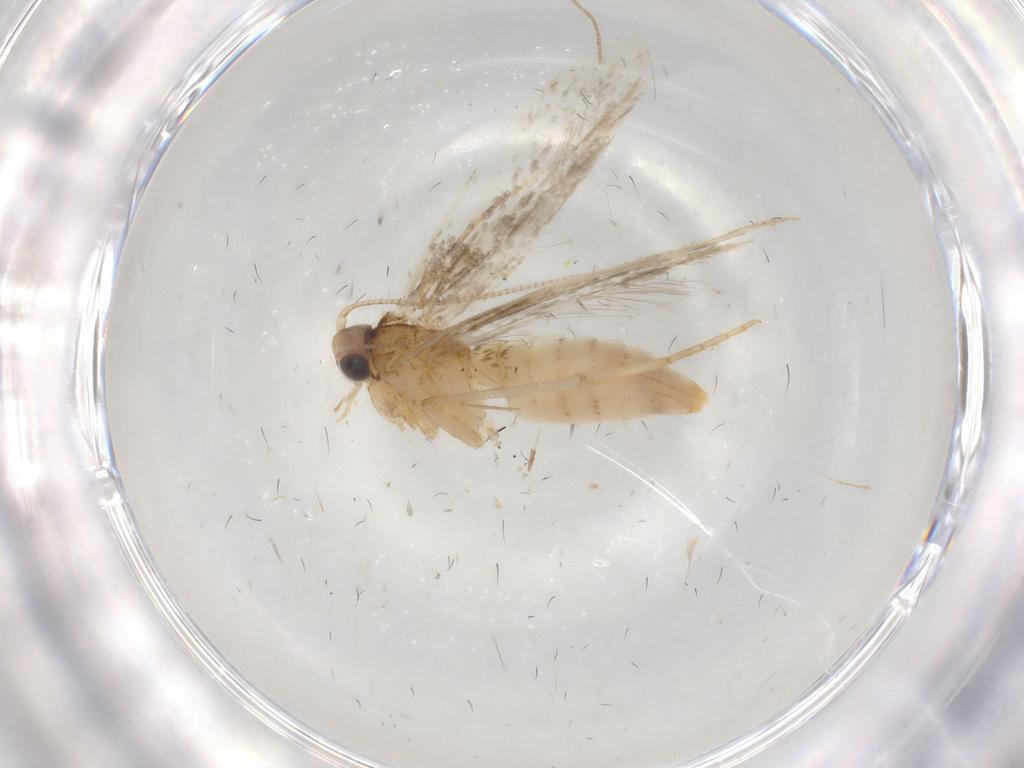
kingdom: Animalia
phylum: Arthropoda
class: Insecta
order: Lepidoptera
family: Tineidae
